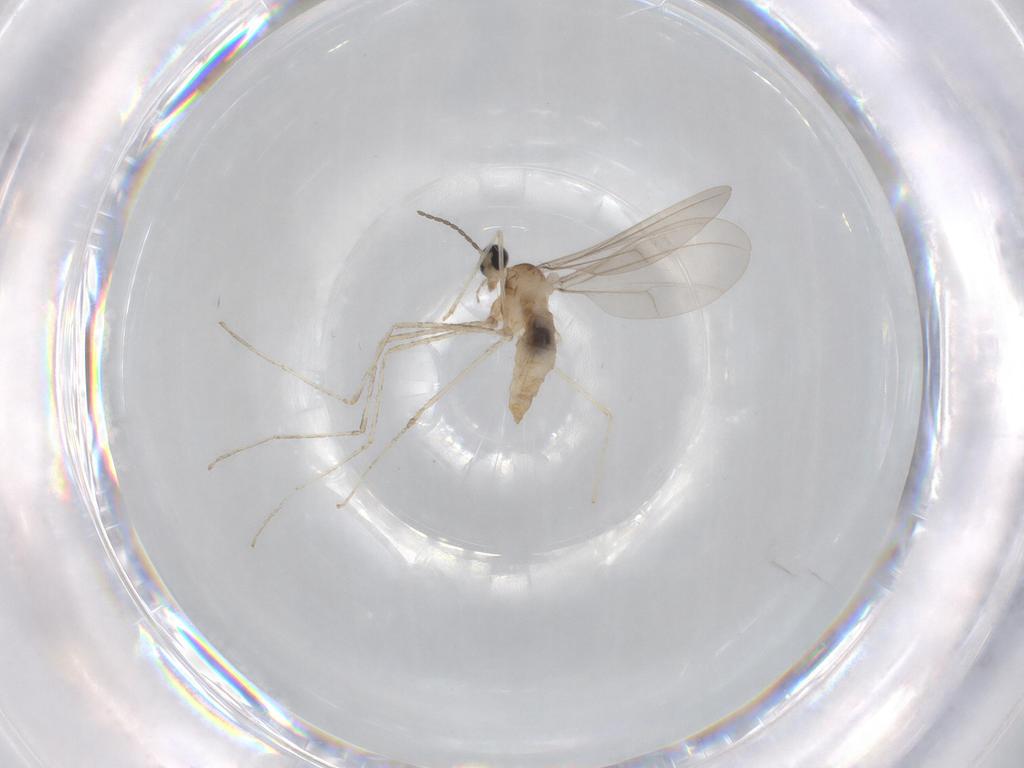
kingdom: Animalia
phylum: Arthropoda
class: Insecta
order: Diptera
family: Cecidomyiidae
